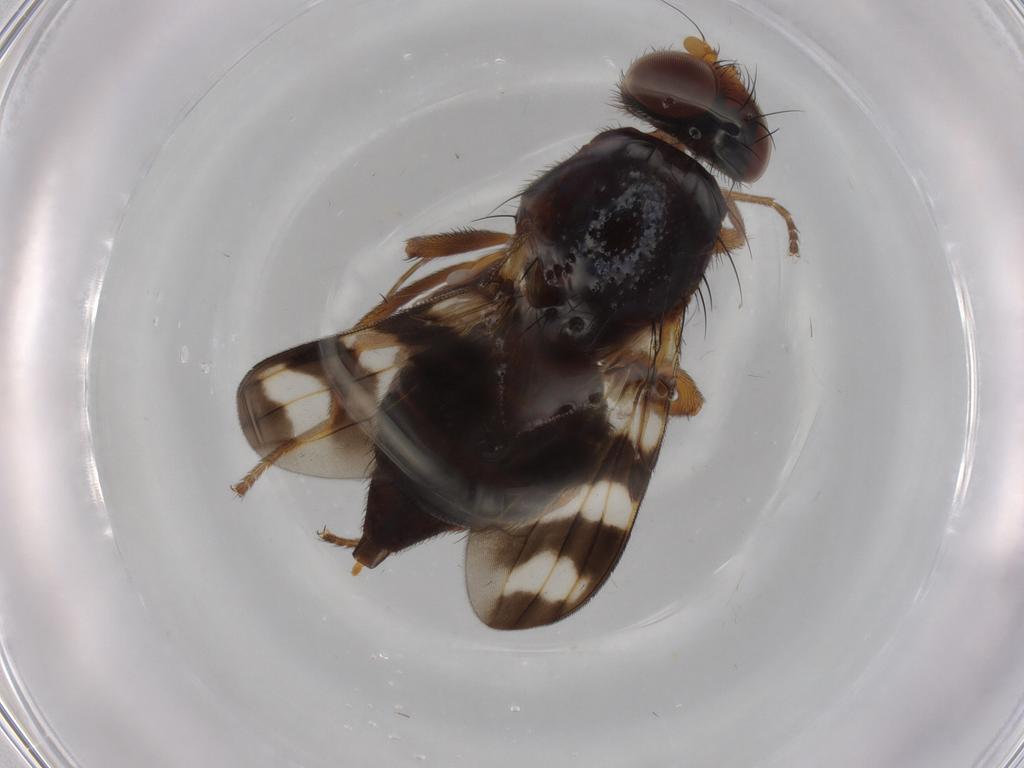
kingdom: Animalia
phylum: Arthropoda
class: Insecta
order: Diptera
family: Ulidiidae
